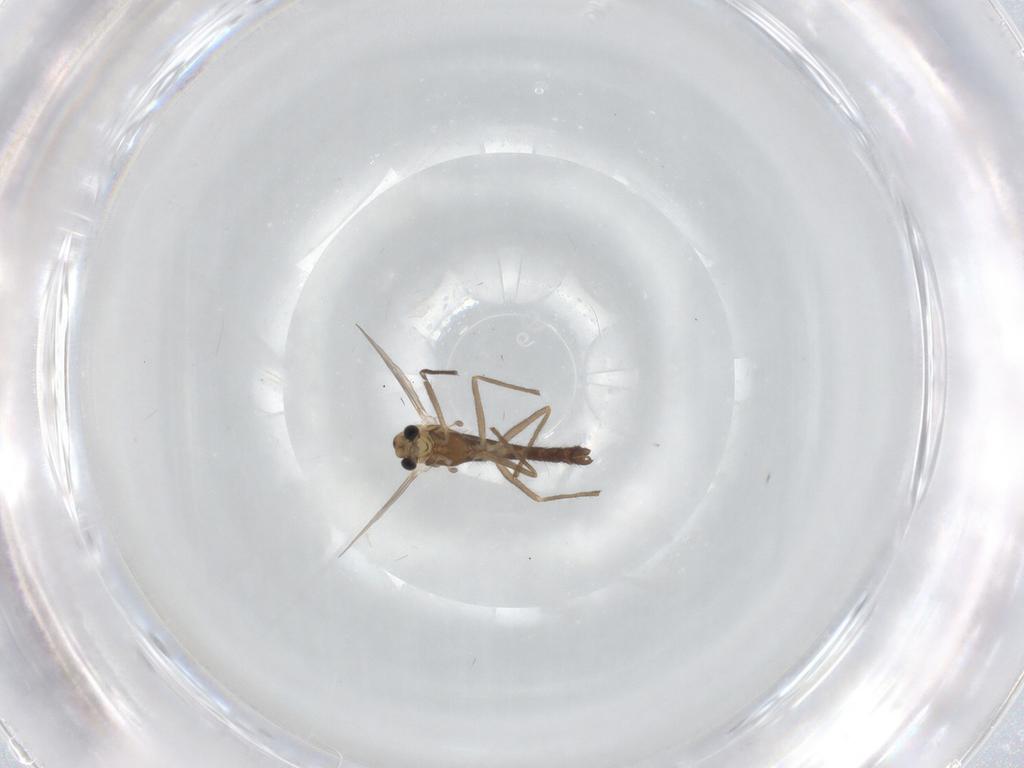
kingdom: Animalia
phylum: Arthropoda
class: Insecta
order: Diptera
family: Chironomidae
